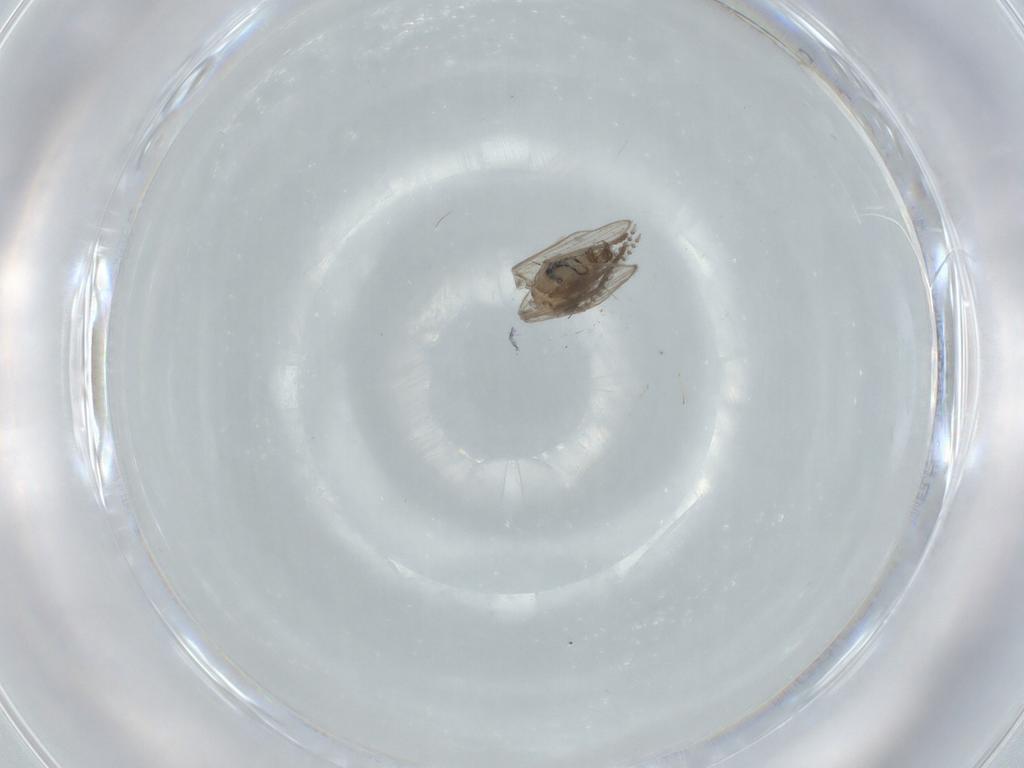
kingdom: Animalia
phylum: Arthropoda
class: Insecta
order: Diptera
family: Psychodidae
